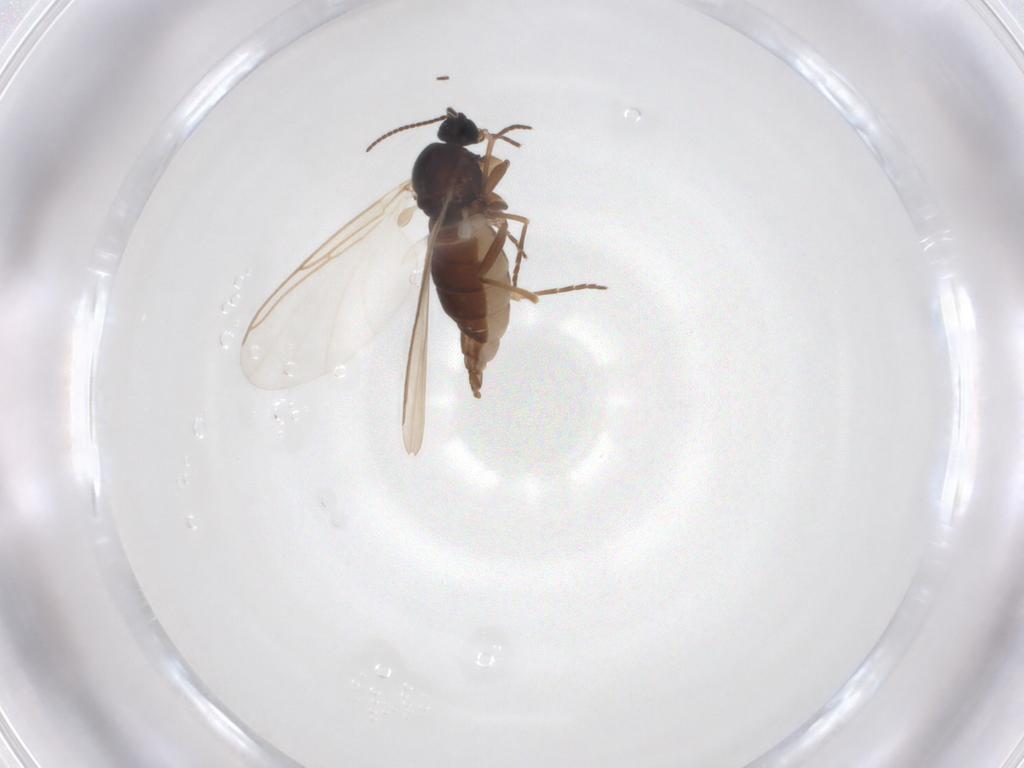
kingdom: Animalia
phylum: Arthropoda
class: Insecta
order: Diptera
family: Sciaridae
